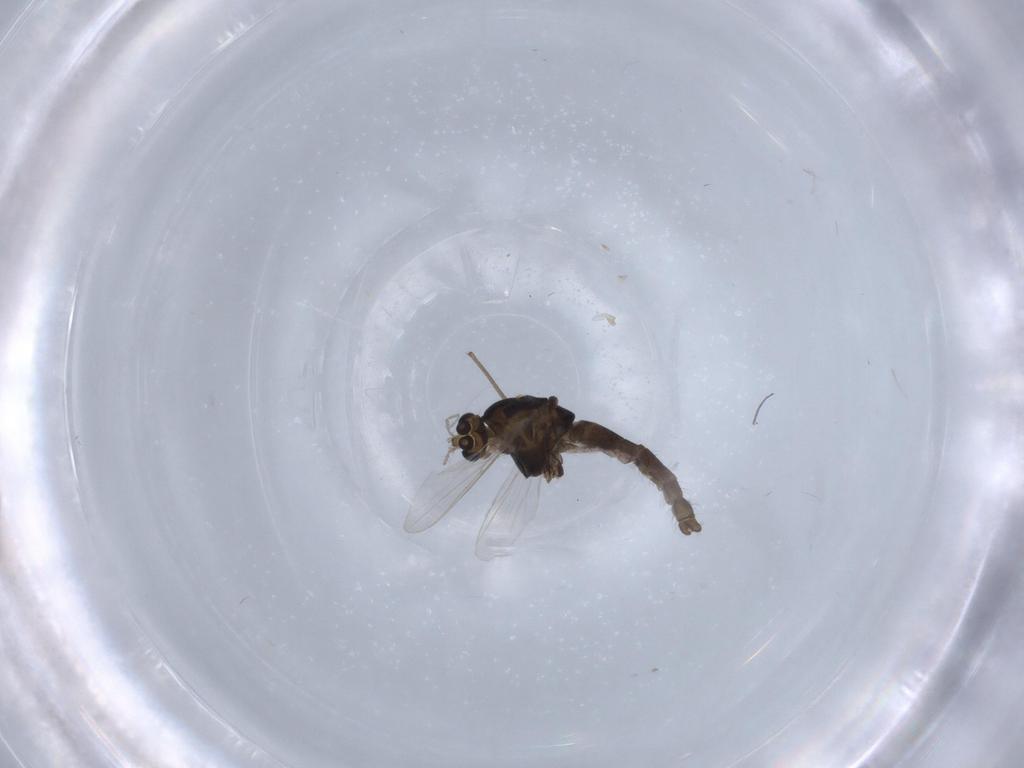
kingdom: Animalia
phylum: Arthropoda
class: Insecta
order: Diptera
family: Chironomidae
